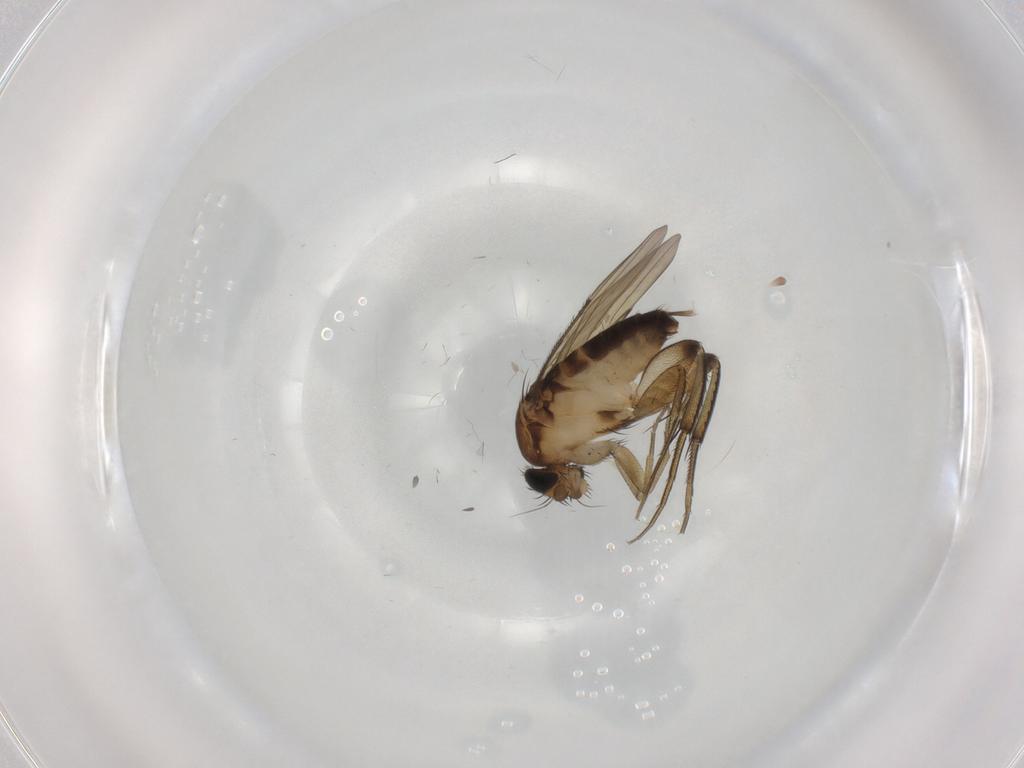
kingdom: Animalia
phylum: Arthropoda
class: Insecta
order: Diptera
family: Phoridae
